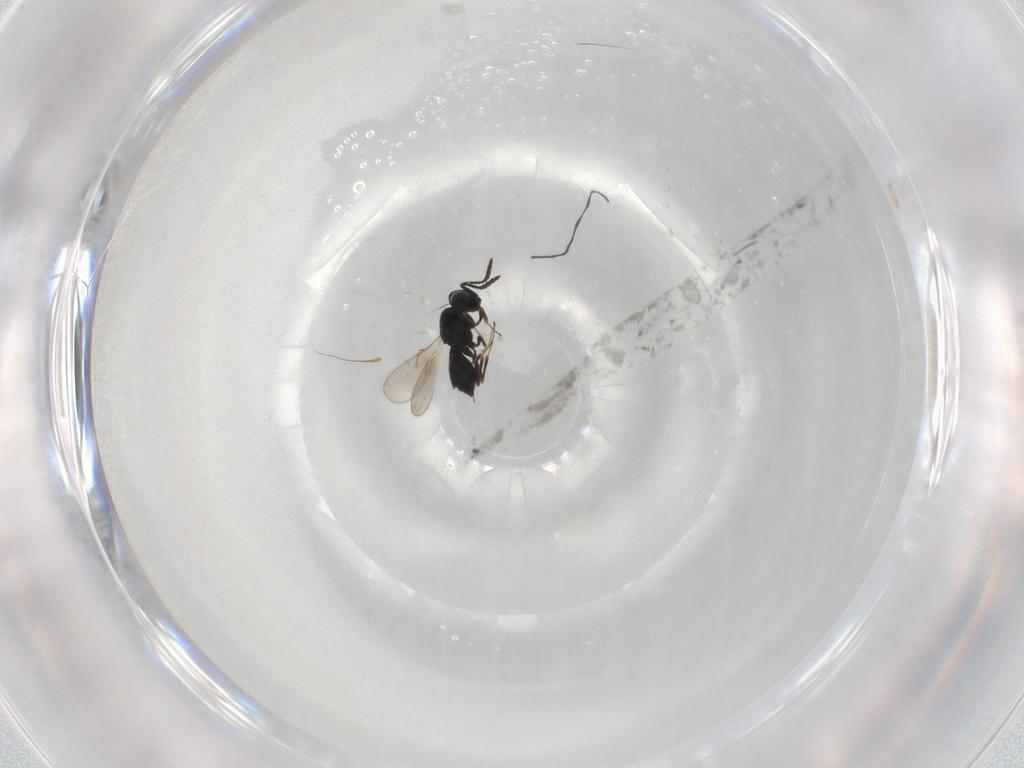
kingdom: Animalia
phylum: Arthropoda
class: Insecta
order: Hymenoptera
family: Scelionidae
